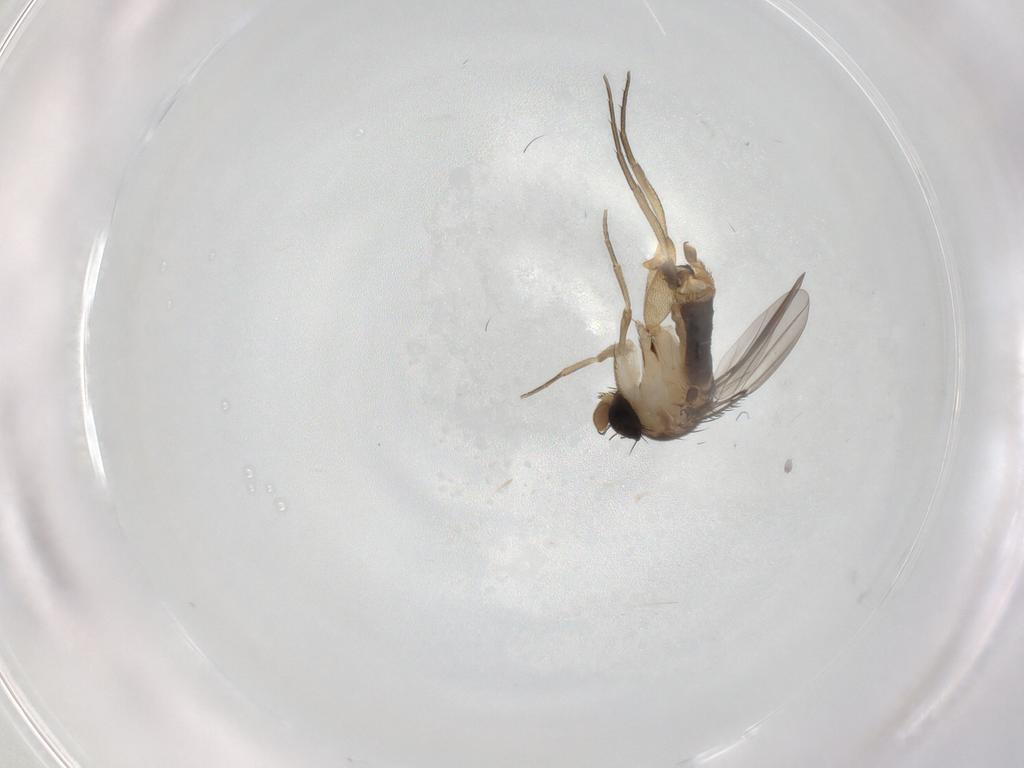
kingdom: Animalia
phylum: Arthropoda
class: Insecta
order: Diptera
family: Phoridae
